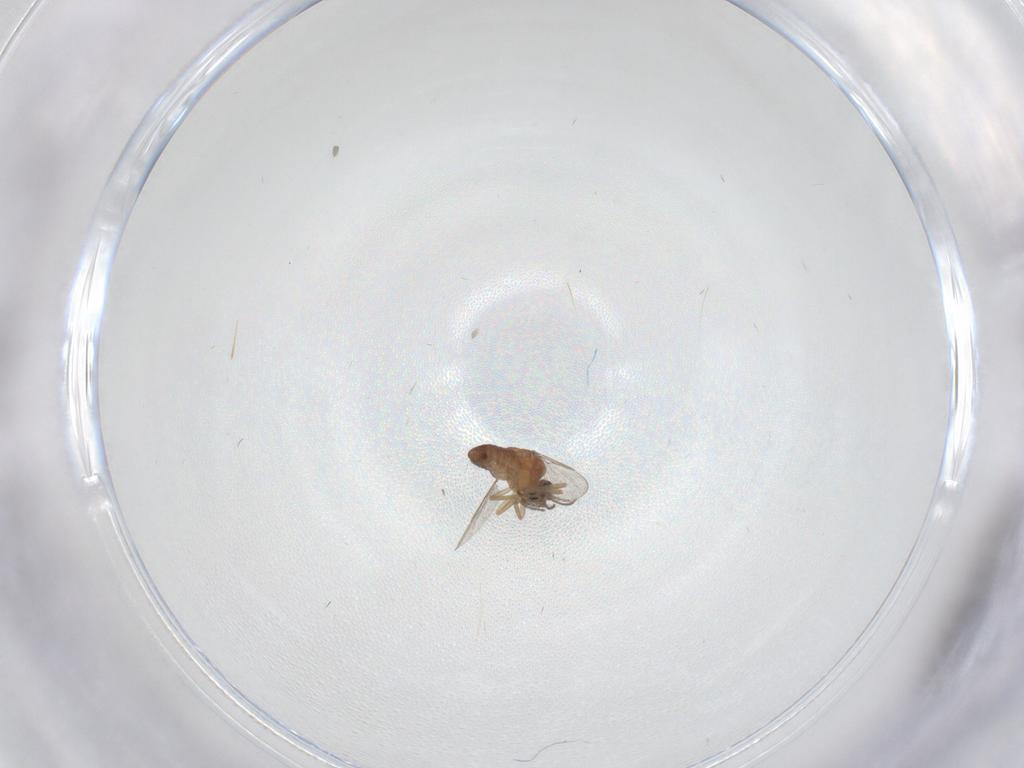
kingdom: Animalia
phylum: Arthropoda
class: Insecta
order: Diptera
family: Ceratopogonidae
